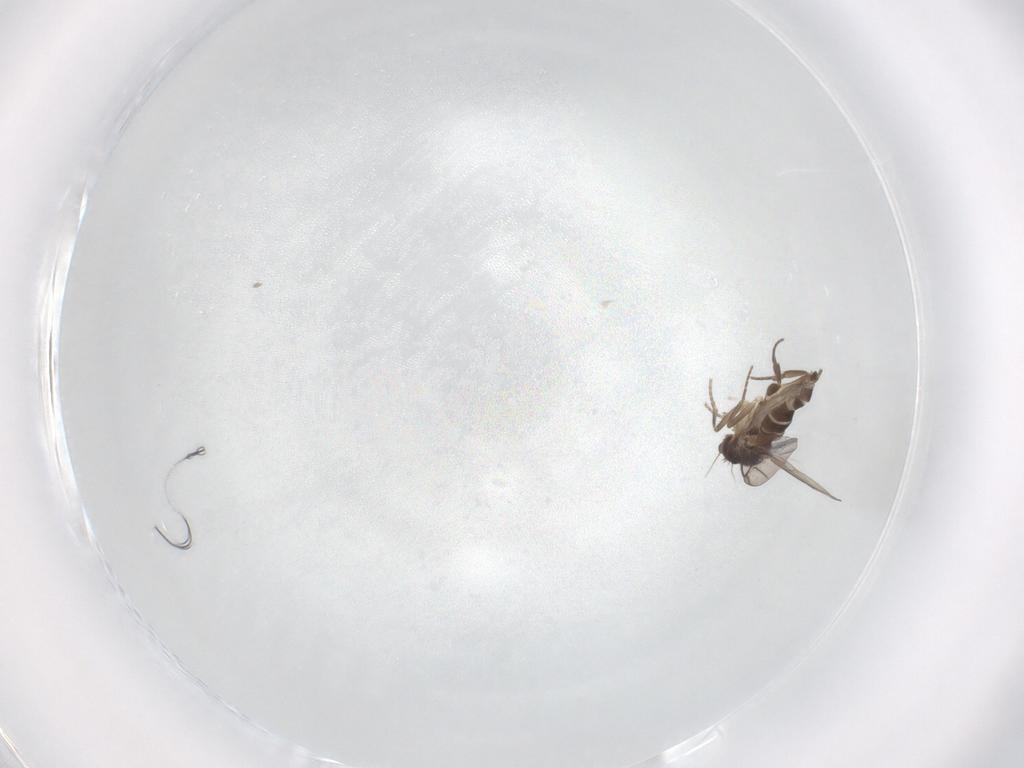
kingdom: Animalia
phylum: Arthropoda
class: Insecta
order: Diptera
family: Phoridae
